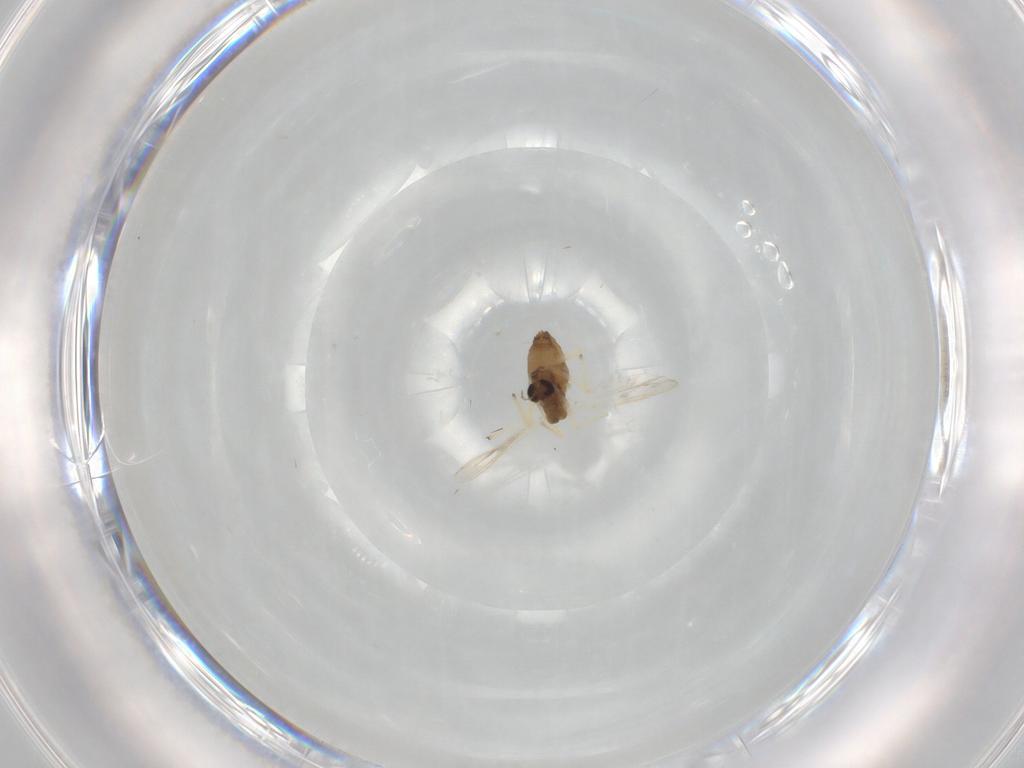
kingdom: Animalia
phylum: Arthropoda
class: Insecta
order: Diptera
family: Chironomidae
